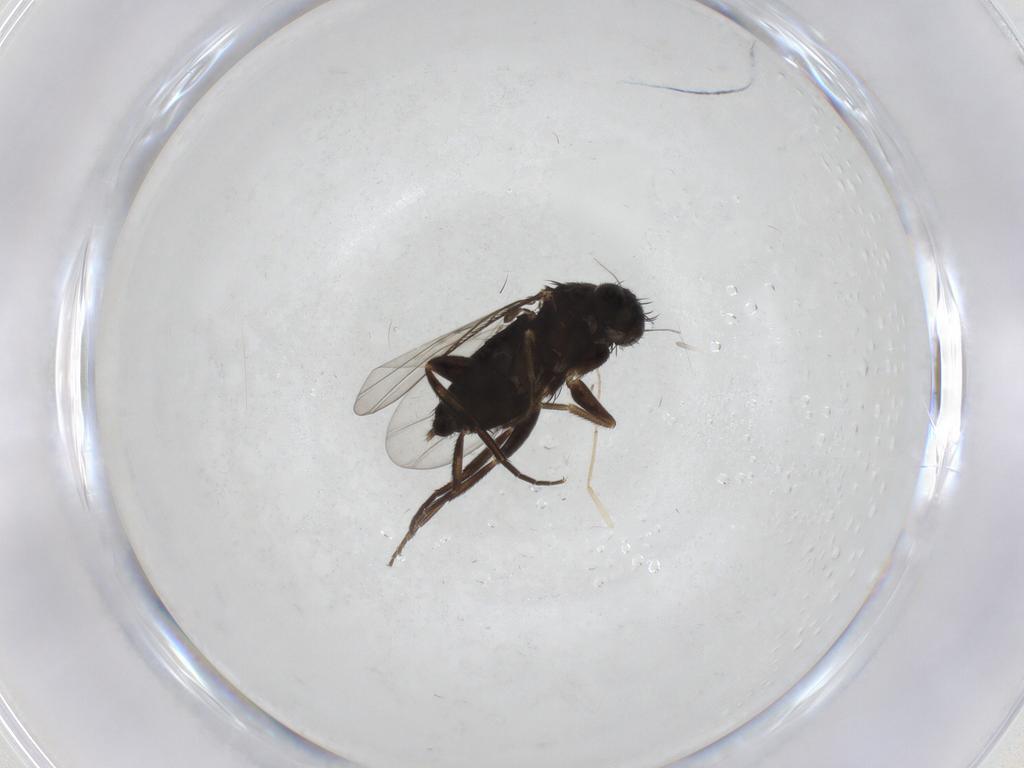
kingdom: Animalia
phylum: Arthropoda
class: Insecta
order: Diptera
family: Phoridae
